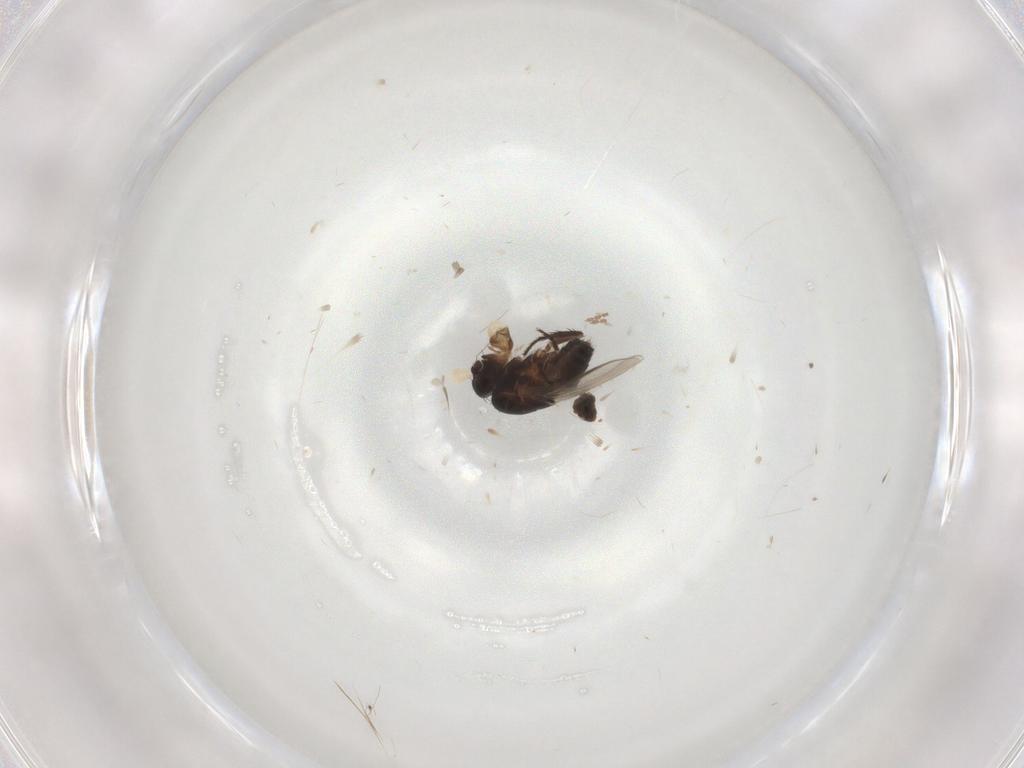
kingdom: Animalia
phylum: Arthropoda
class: Insecta
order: Diptera
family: Cecidomyiidae
